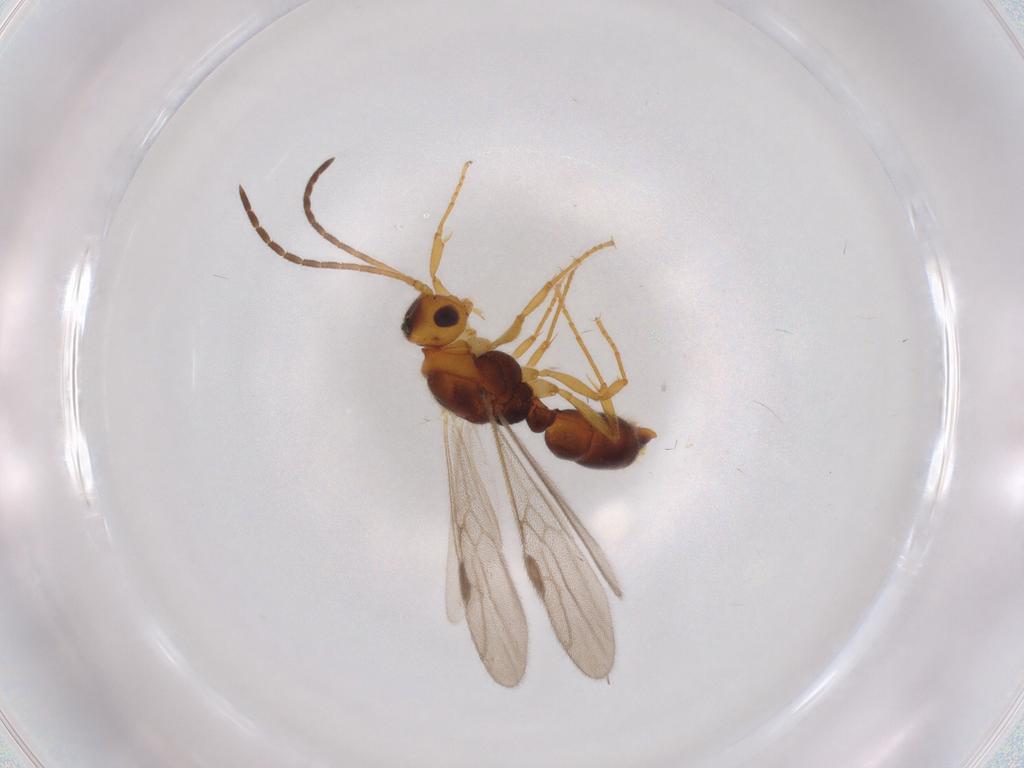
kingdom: Animalia
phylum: Arthropoda
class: Insecta
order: Hymenoptera
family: Formicidae
